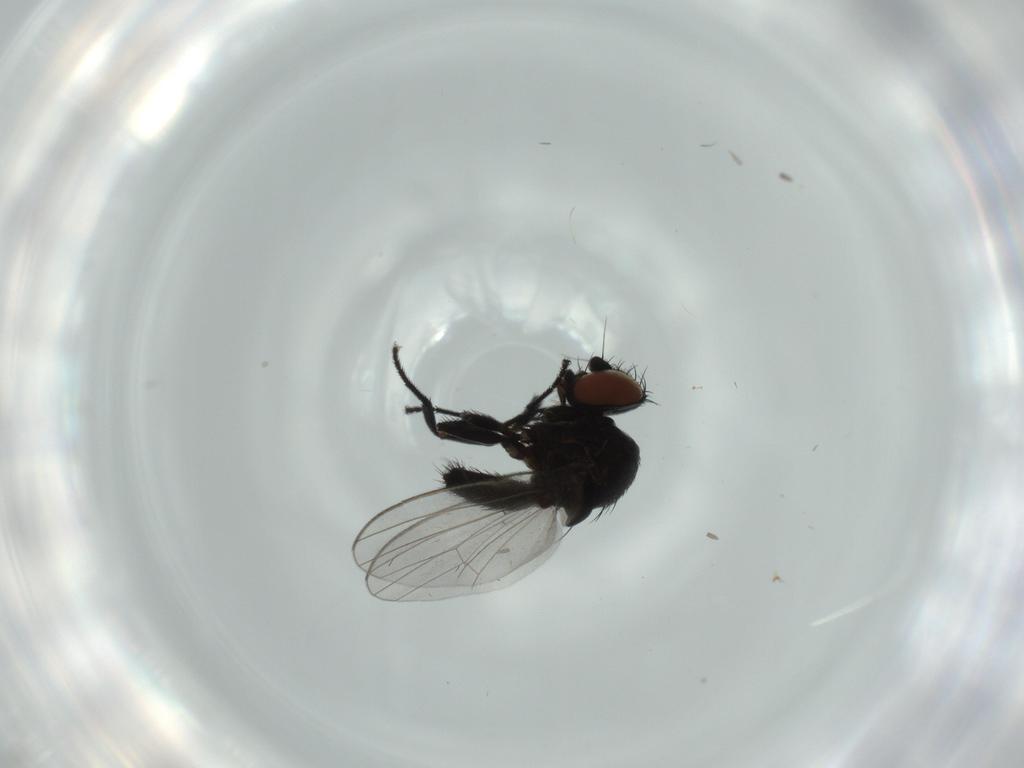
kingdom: Animalia
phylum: Arthropoda
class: Insecta
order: Diptera
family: Milichiidae
